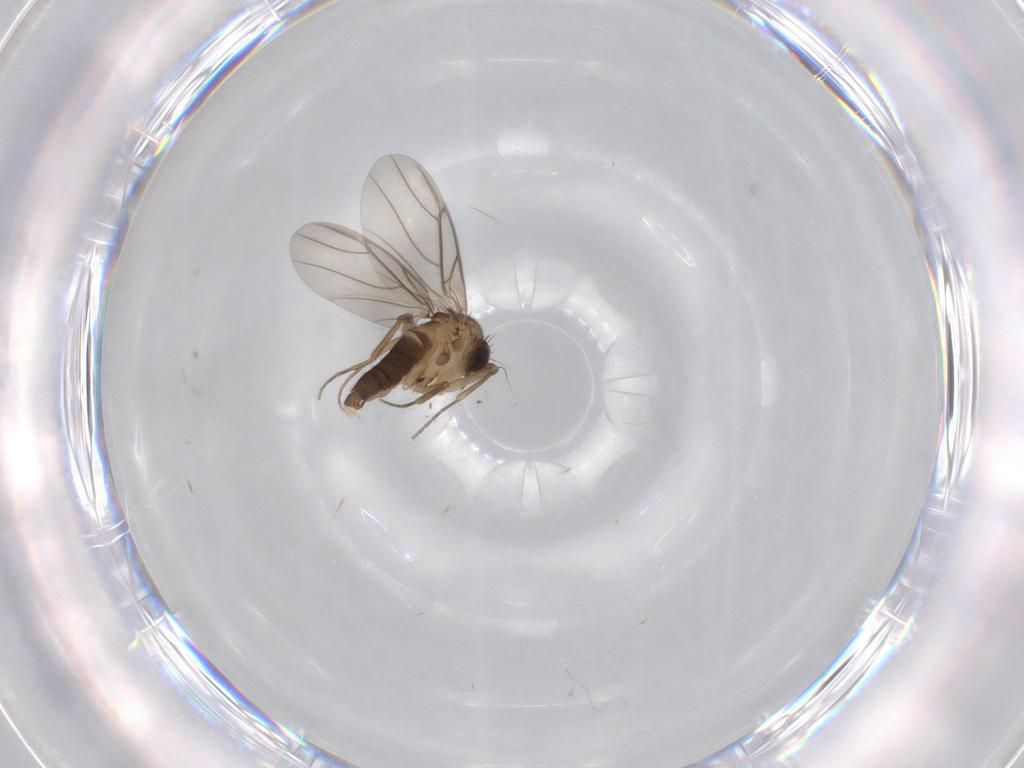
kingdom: Animalia
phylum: Arthropoda
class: Insecta
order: Diptera
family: Phoridae
